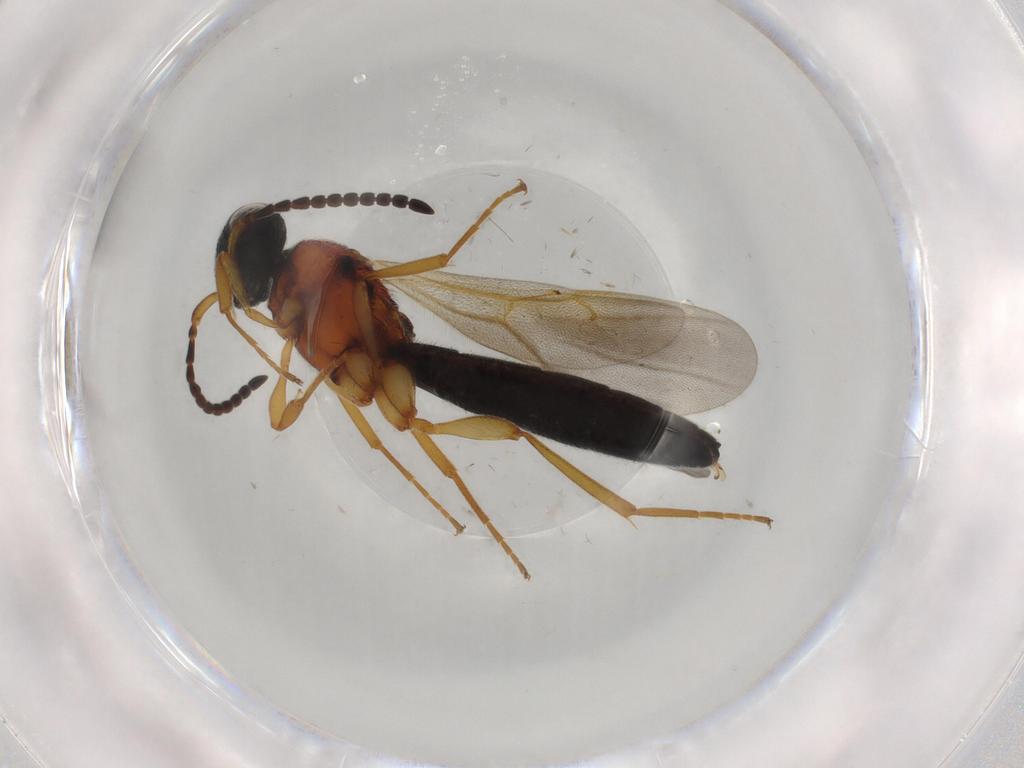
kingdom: Animalia
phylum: Arthropoda
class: Insecta
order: Hymenoptera
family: Scelionidae
